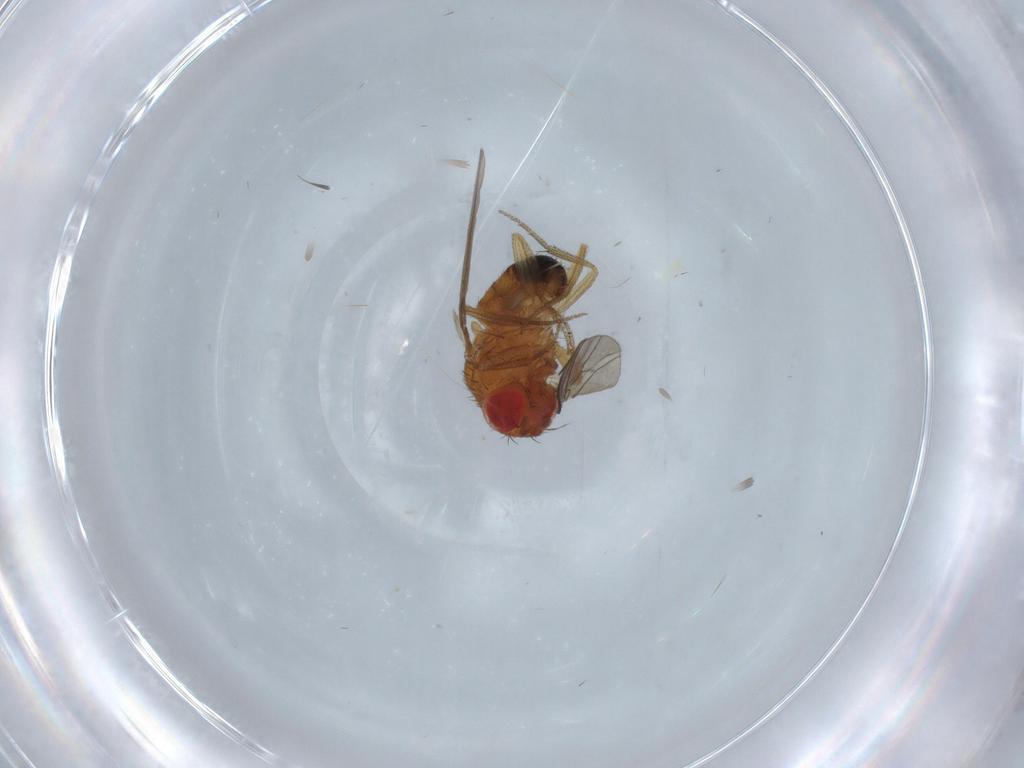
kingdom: Animalia
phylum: Arthropoda
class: Insecta
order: Diptera
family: Drosophilidae
